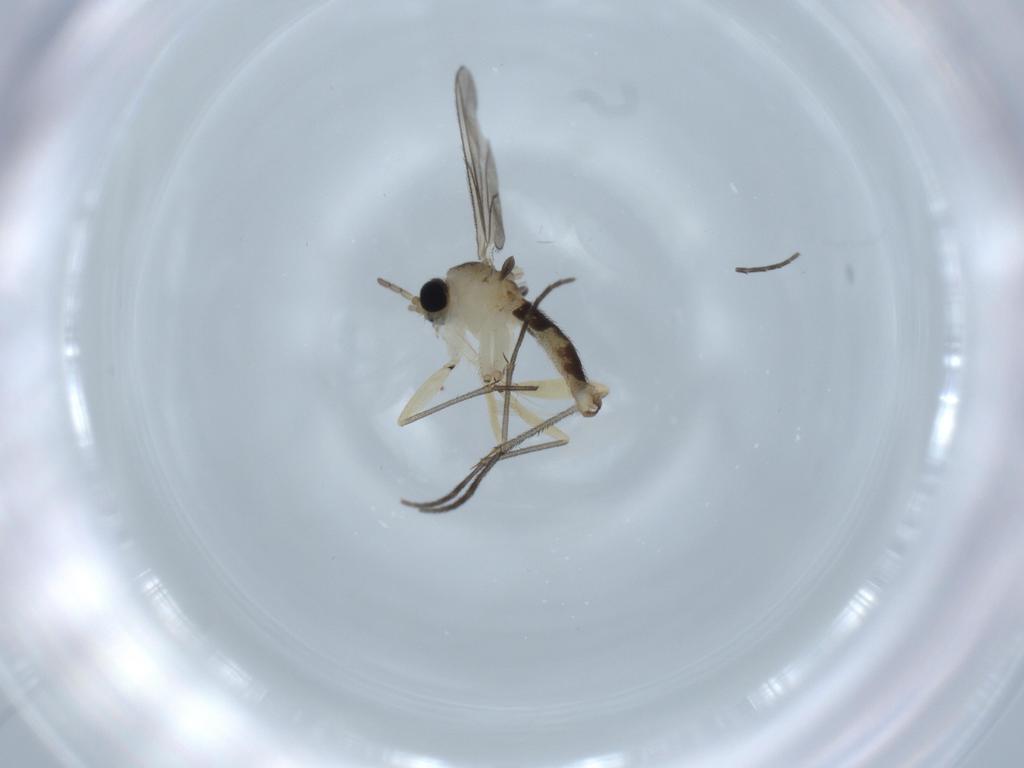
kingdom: Animalia
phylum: Arthropoda
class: Insecta
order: Diptera
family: Sciaridae
